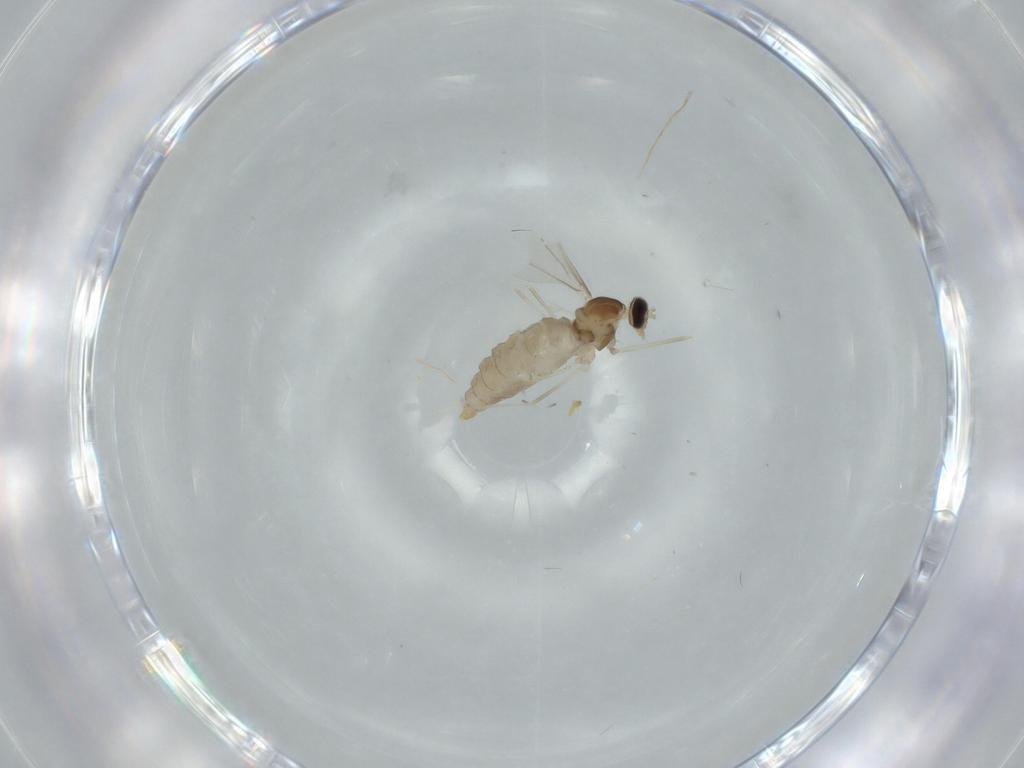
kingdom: Animalia
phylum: Arthropoda
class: Insecta
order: Diptera
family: Cecidomyiidae
